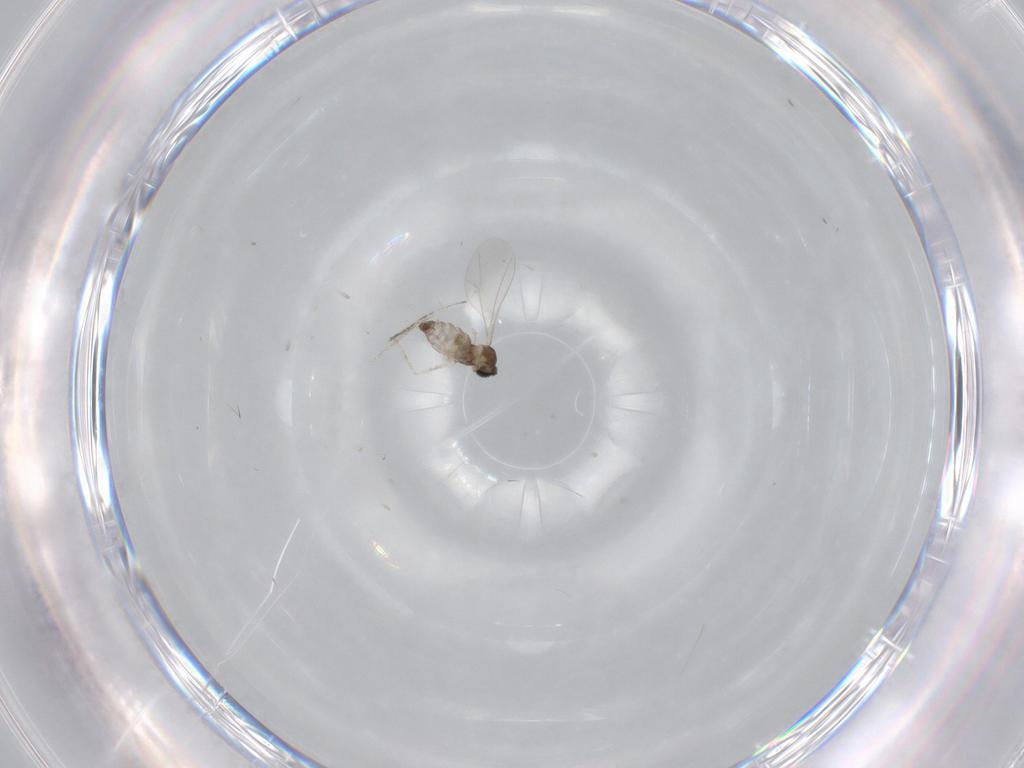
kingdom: Animalia
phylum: Arthropoda
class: Insecta
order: Diptera
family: Cecidomyiidae
